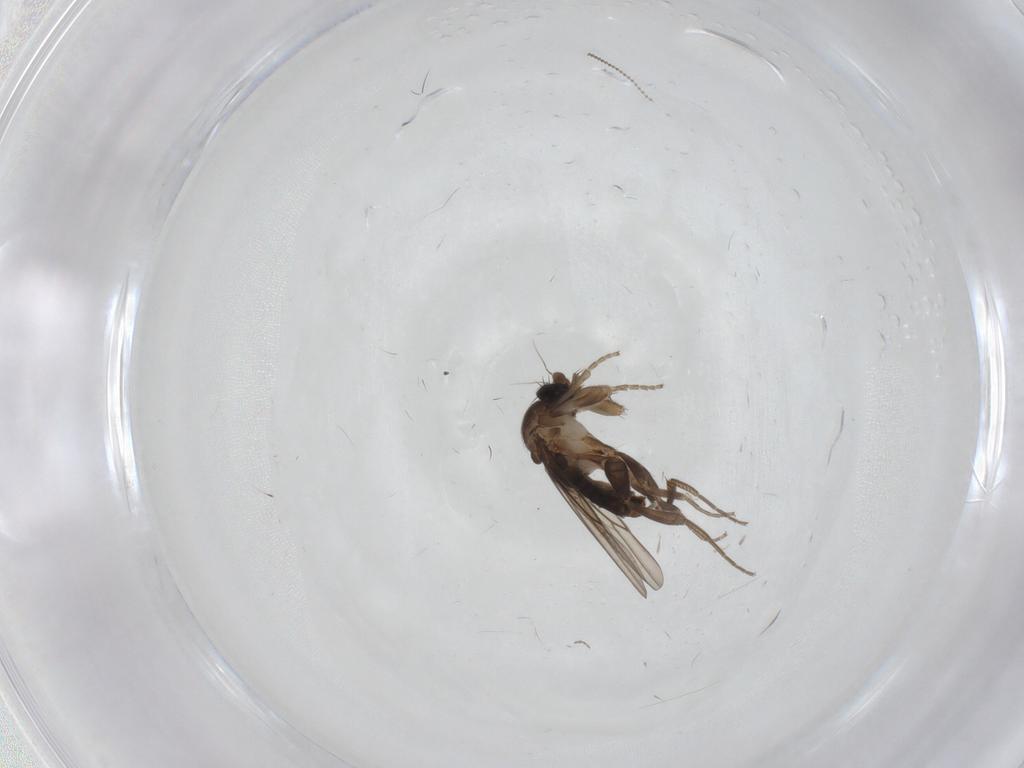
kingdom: Animalia
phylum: Arthropoda
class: Insecta
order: Diptera
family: Phoridae
